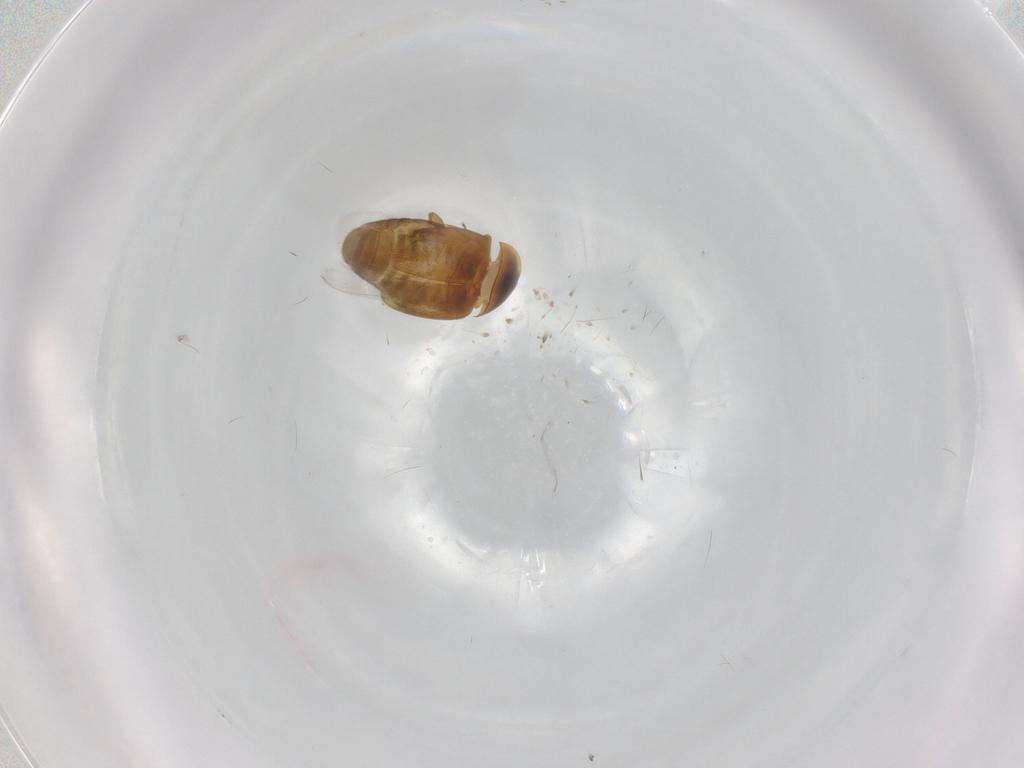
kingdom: Animalia
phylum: Arthropoda
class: Insecta
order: Coleoptera
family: Corylophidae
